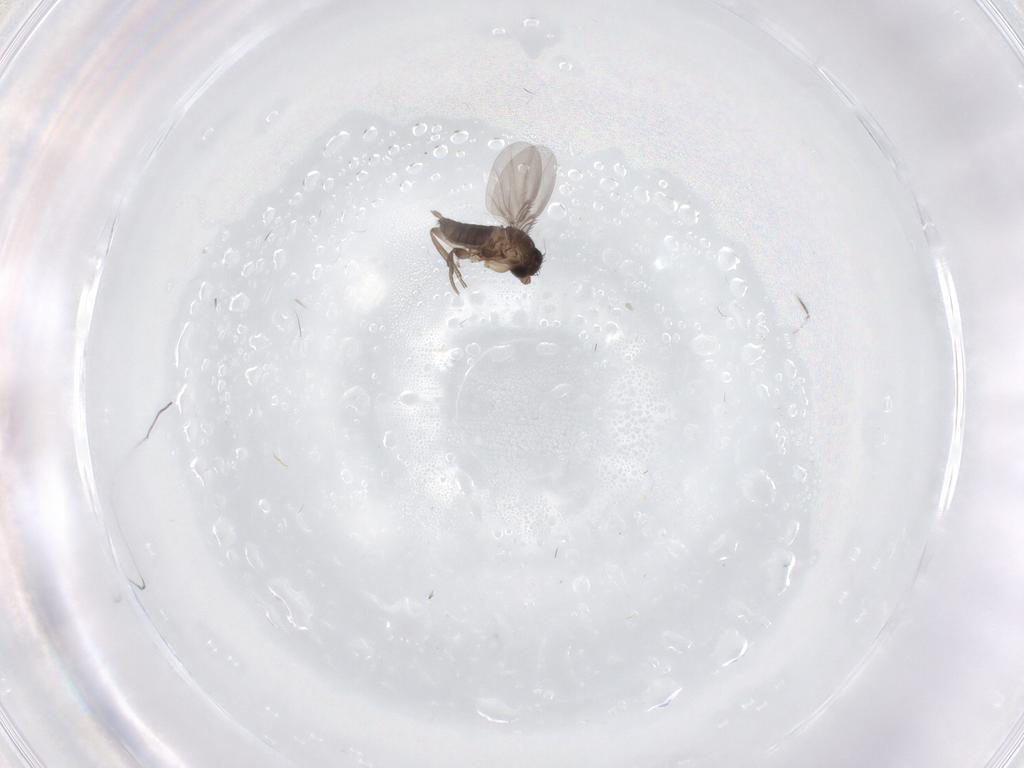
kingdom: Animalia
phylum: Arthropoda
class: Insecta
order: Diptera
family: Phoridae
